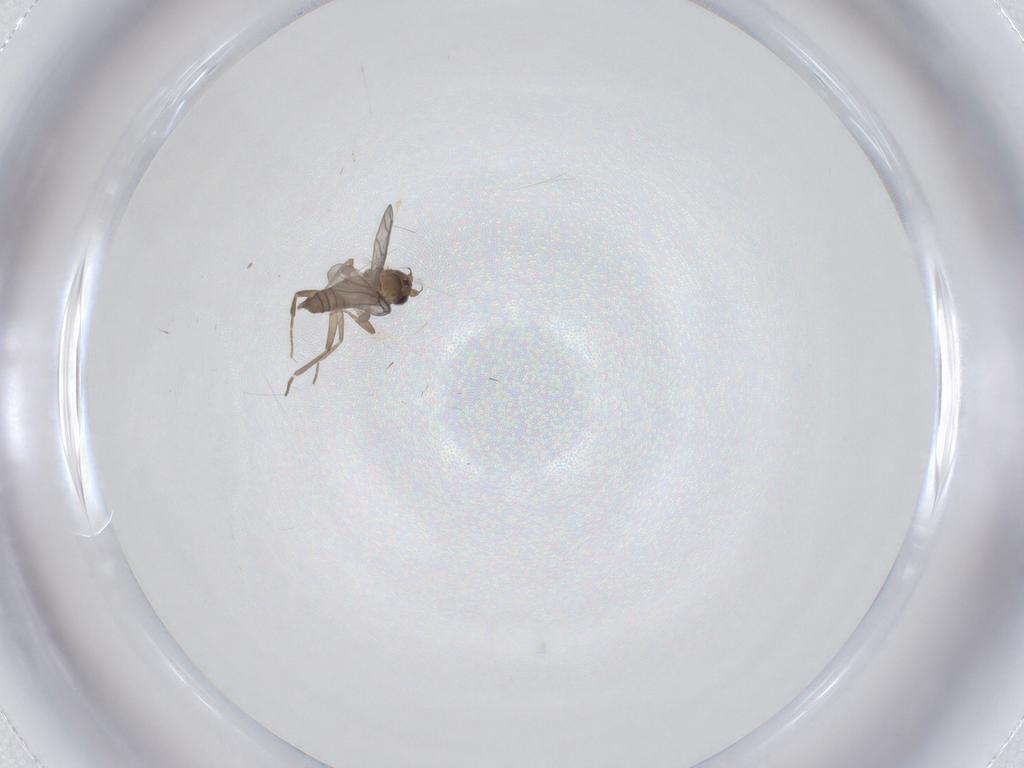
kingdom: Animalia
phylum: Arthropoda
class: Insecta
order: Diptera
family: Cecidomyiidae
